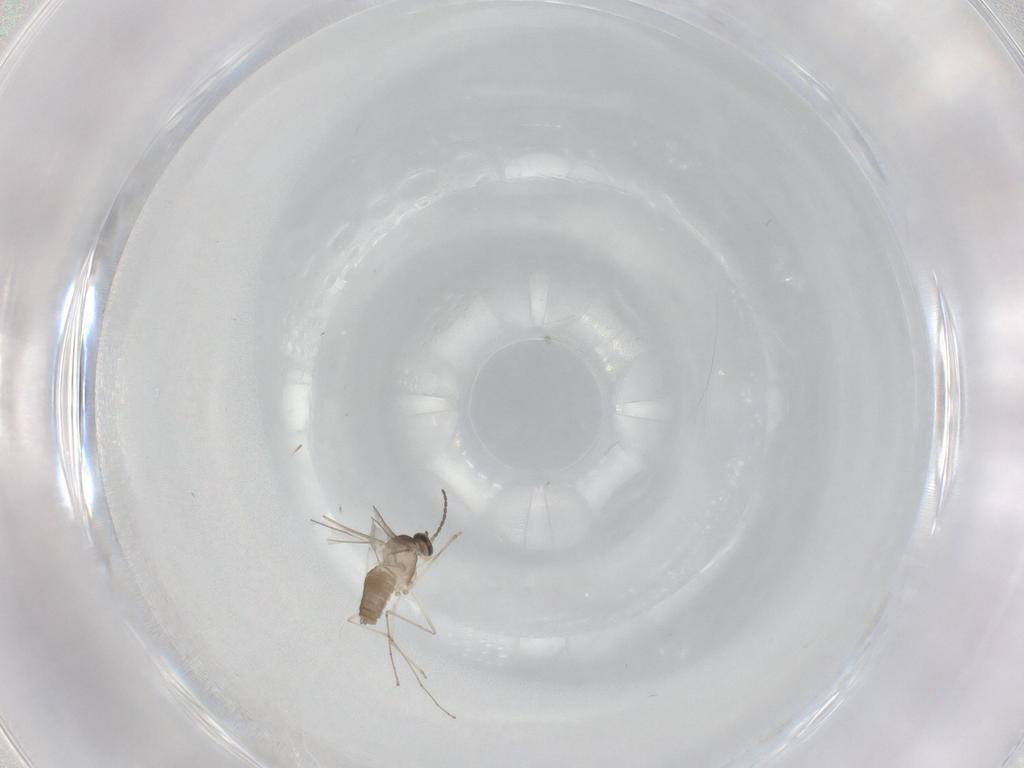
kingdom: Animalia
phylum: Arthropoda
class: Insecta
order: Diptera
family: Cecidomyiidae
